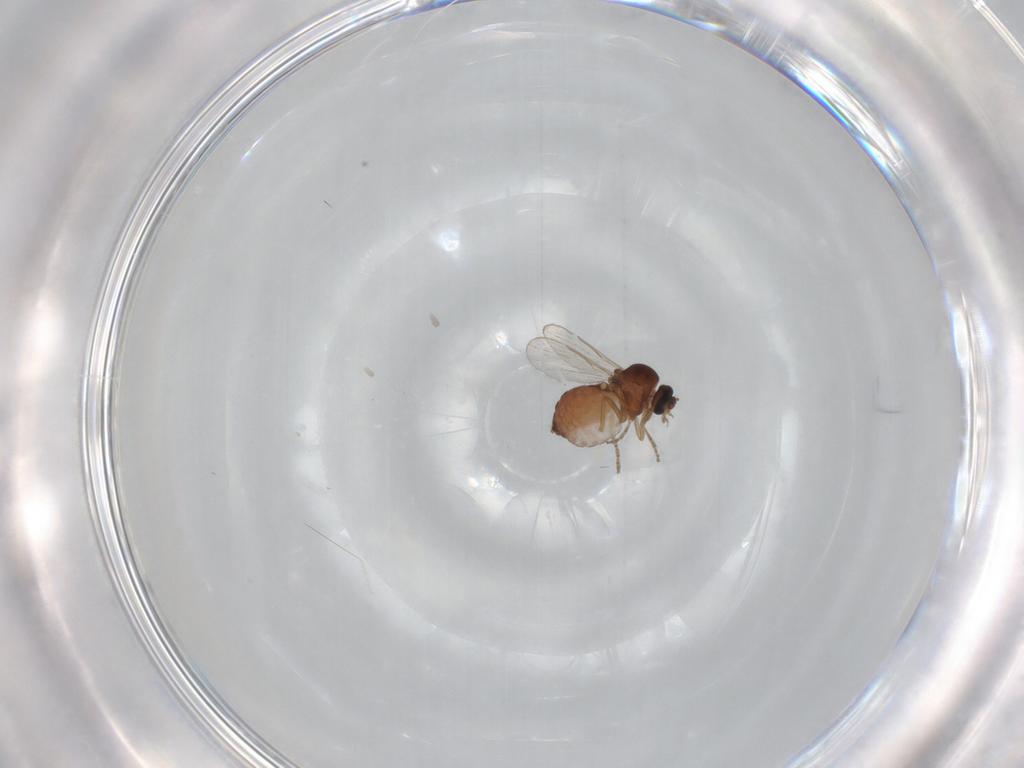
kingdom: Animalia
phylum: Arthropoda
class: Insecta
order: Diptera
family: Ceratopogonidae
